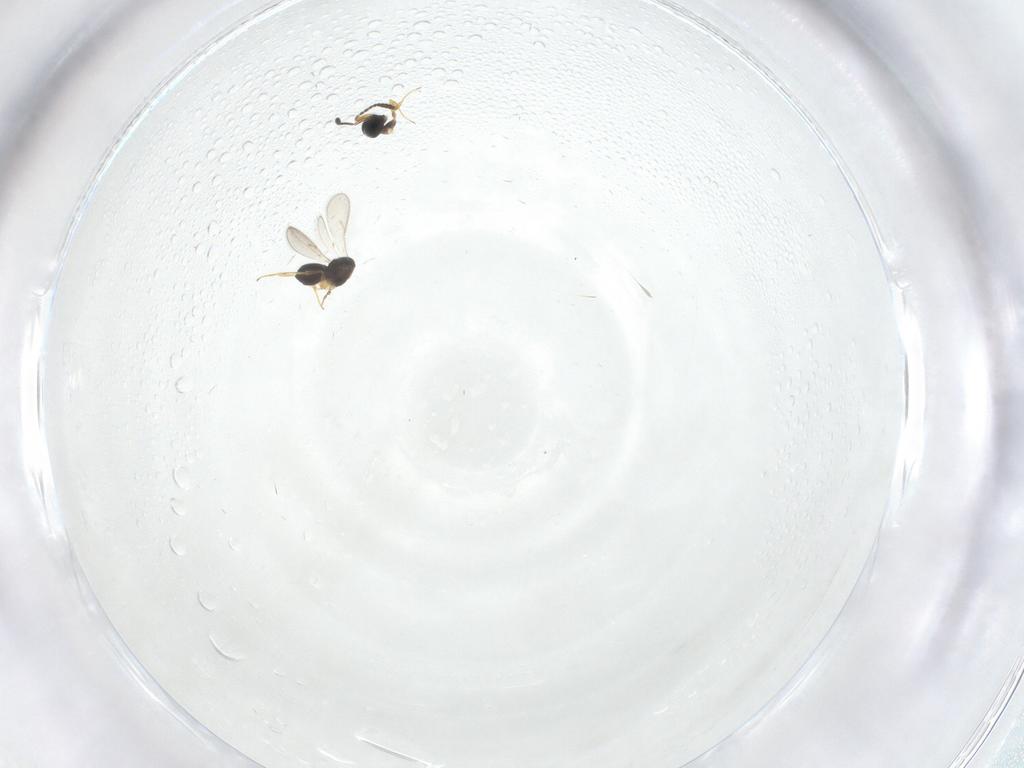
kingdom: Animalia
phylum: Arthropoda
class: Insecta
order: Hymenoptera
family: Scelionidae
